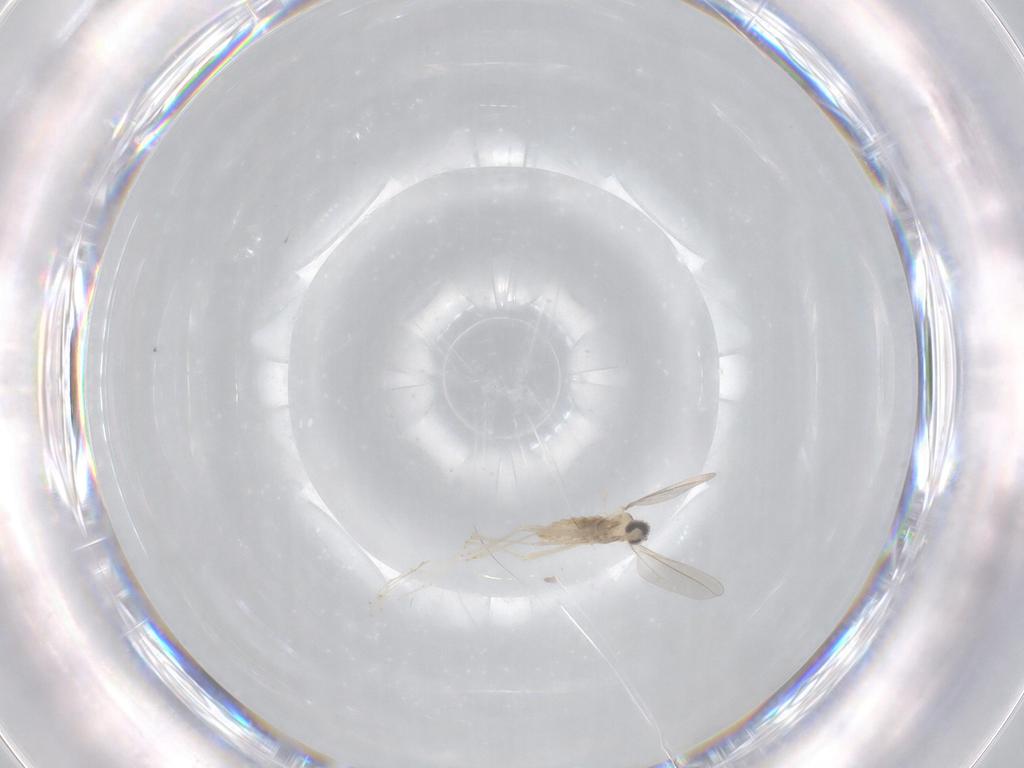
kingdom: Animalia
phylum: Arthropoda
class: Insecta
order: Diptera
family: Cecidomyiidae
